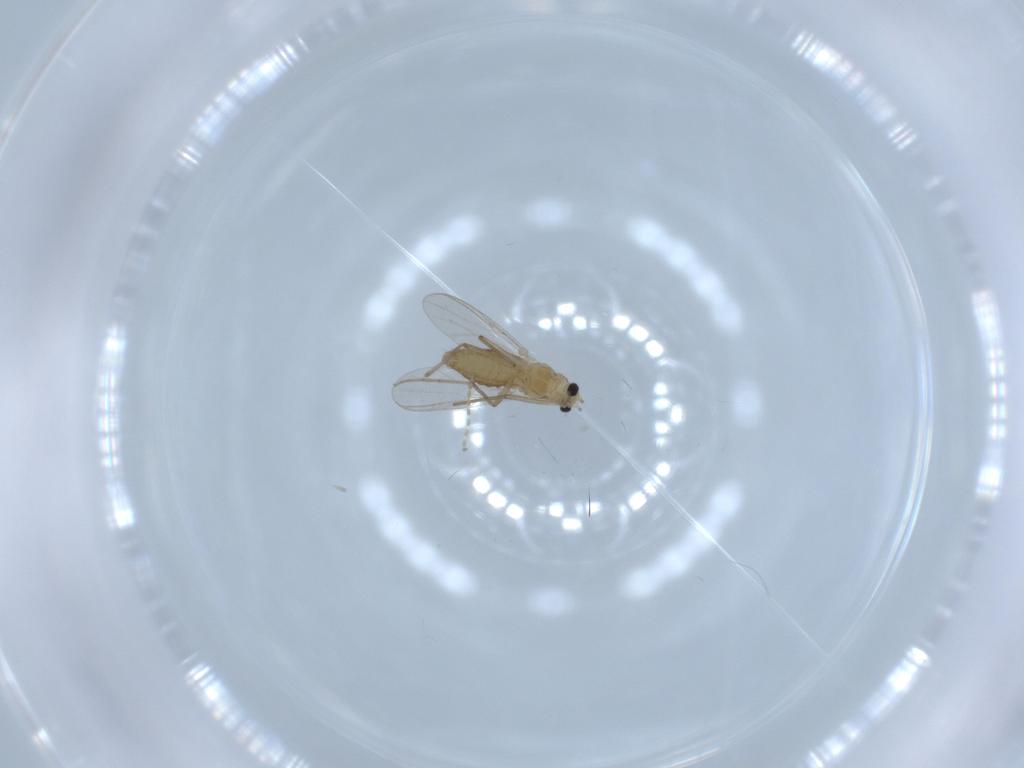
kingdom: Animalia
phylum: Arthropoda
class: Insecta
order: Diptera
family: Chironomidae
